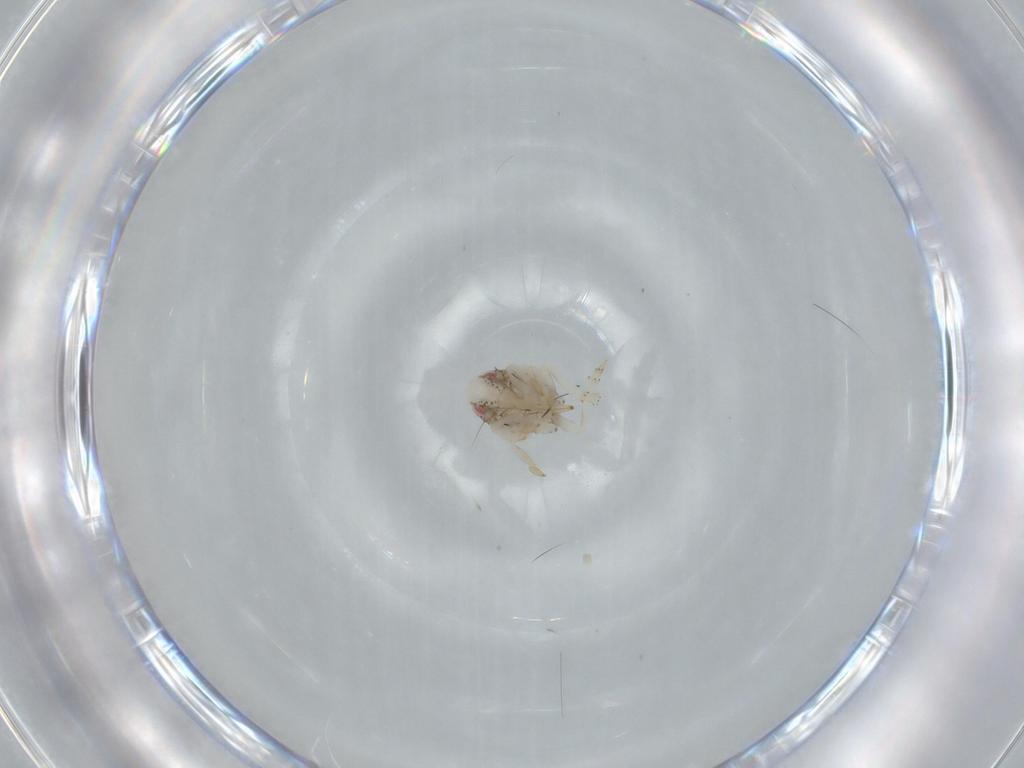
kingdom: Animalia
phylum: Arthropoda
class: Insecta
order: Hemiptera
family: Acanaloniidae
